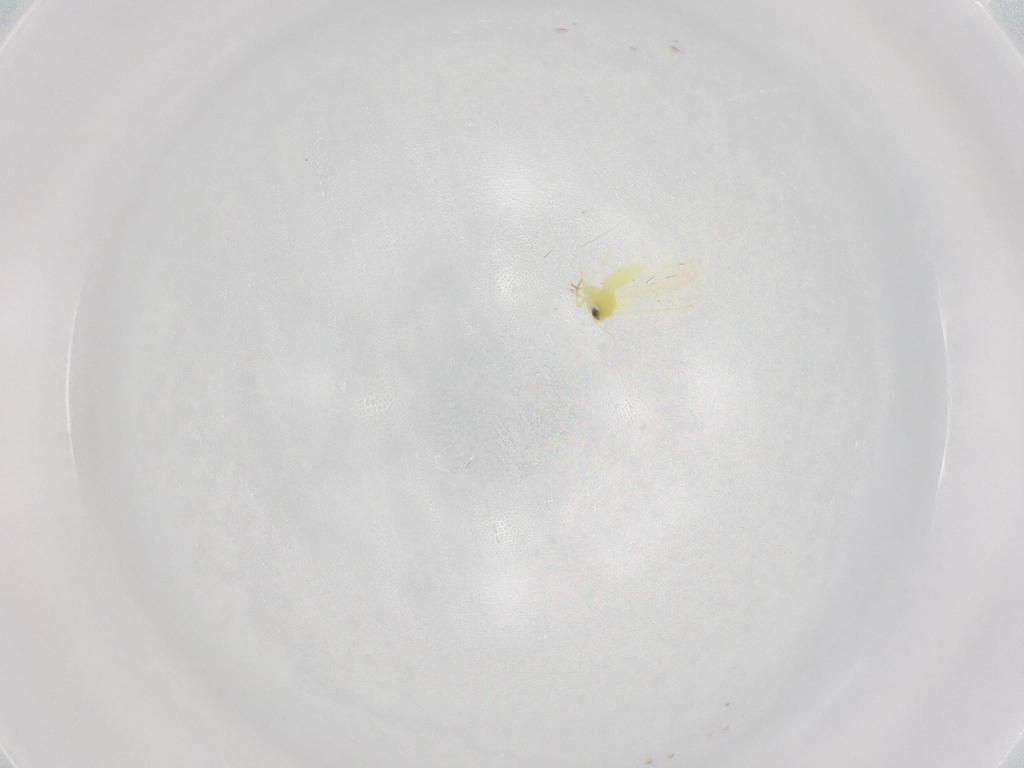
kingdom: Animalia
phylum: Arthropoda
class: Insecta
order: Hemiptera
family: Aleyrodidae
